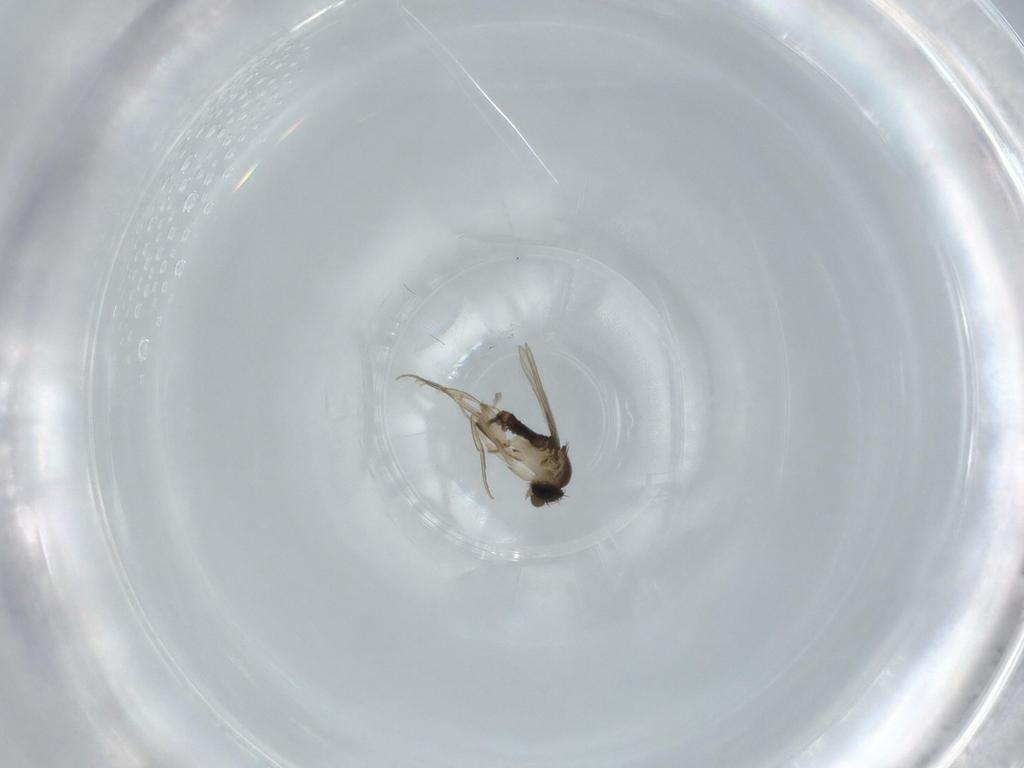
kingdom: Animalia
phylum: Arthropoda
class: Insecta
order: Diptera
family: Phoridae
